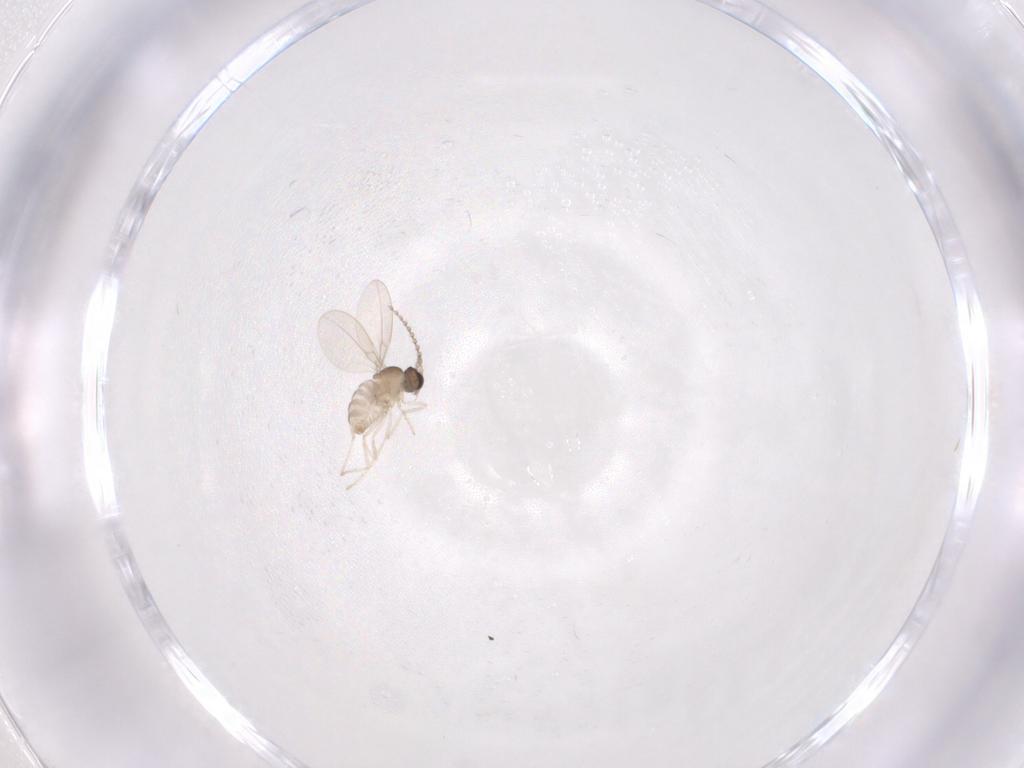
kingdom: Animalia
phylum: Arthropoda
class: Insecta
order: Diptera
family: Cecidomyiidae
